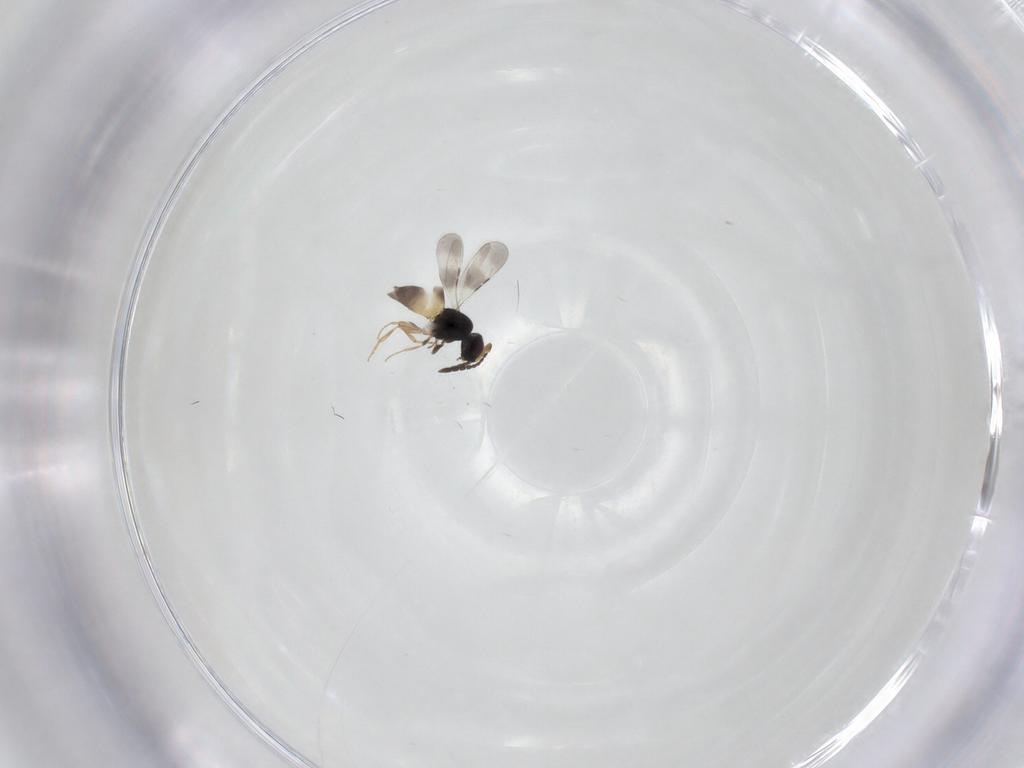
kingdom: Animalia
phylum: Arthropoda
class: Insecta
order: Hymenoptera
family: Ceraphronidae
